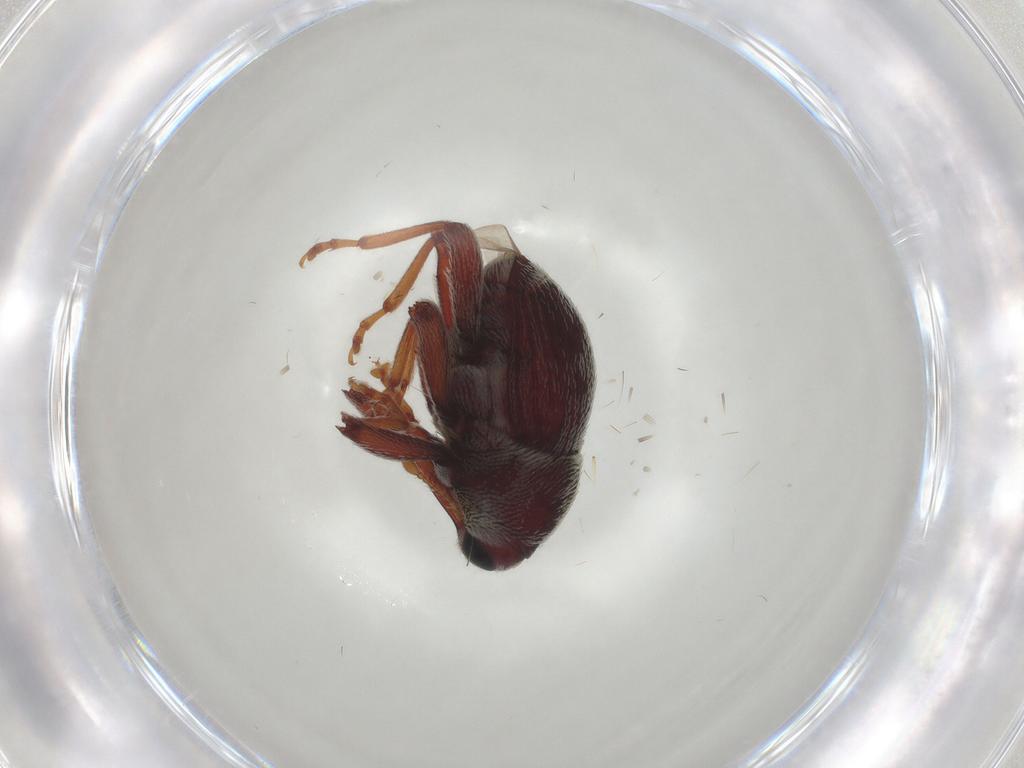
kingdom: Animalia
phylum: Arthropoda
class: Insecta
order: Coleoptera
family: Curculionidae
